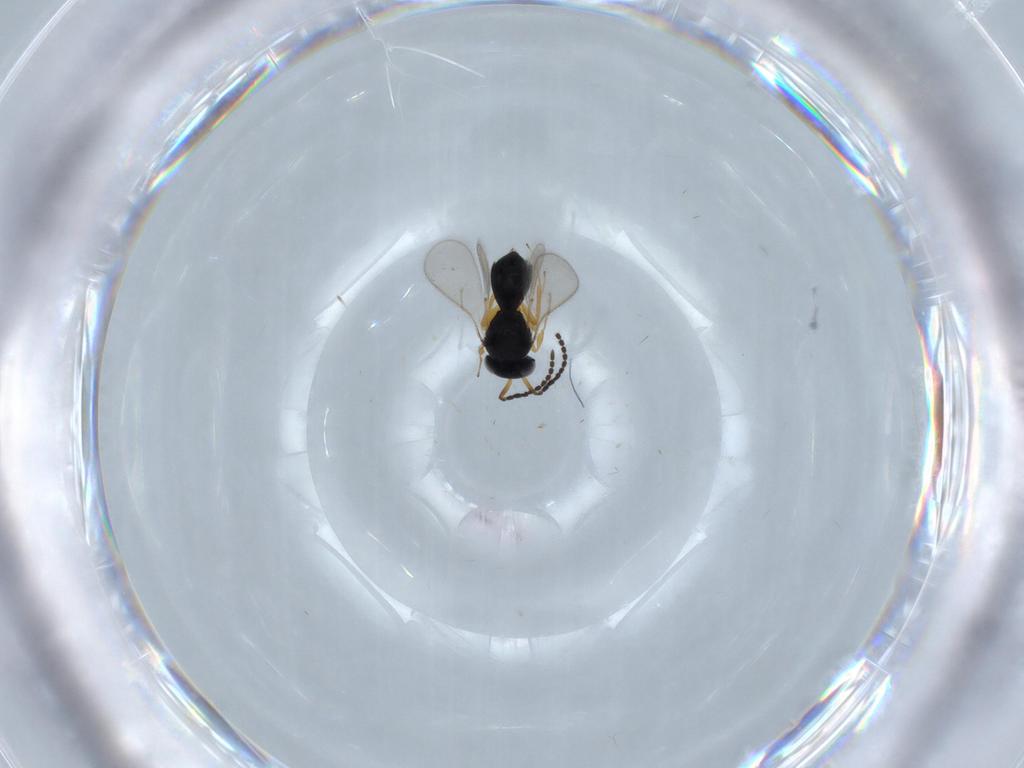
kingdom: Animalia
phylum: Arthropoda
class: Insecta
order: Hymenoptera
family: Scelionidae
